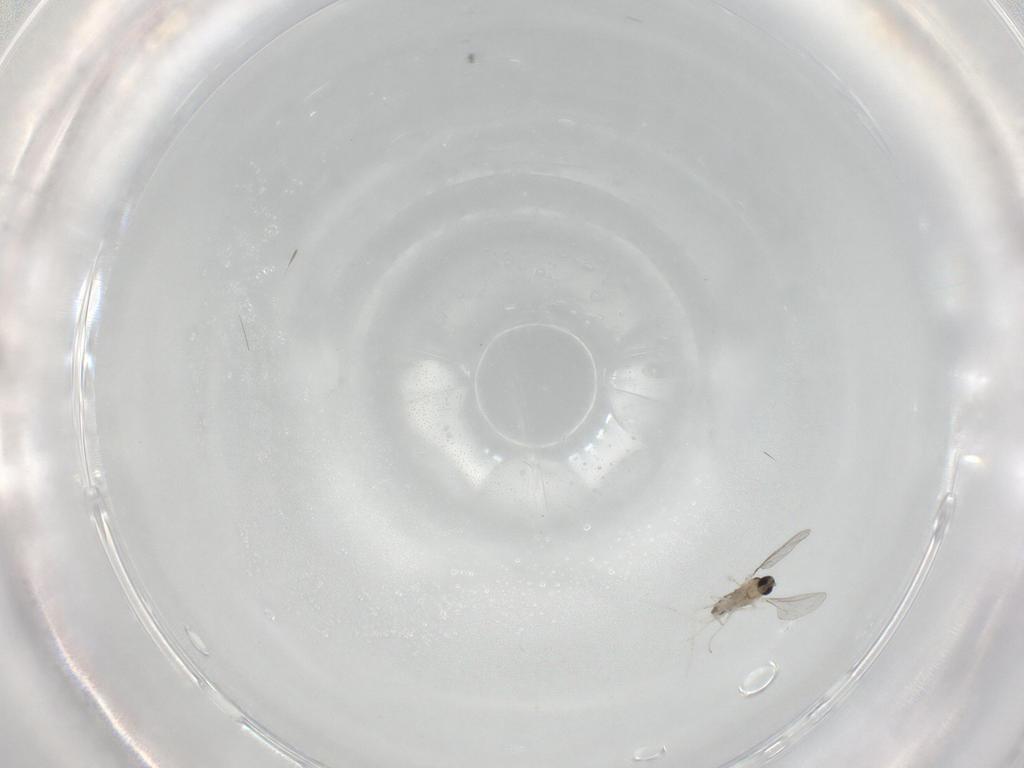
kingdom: Animalia
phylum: Arthropoda
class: Insecta
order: Diptera
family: Cecidomyiidae
